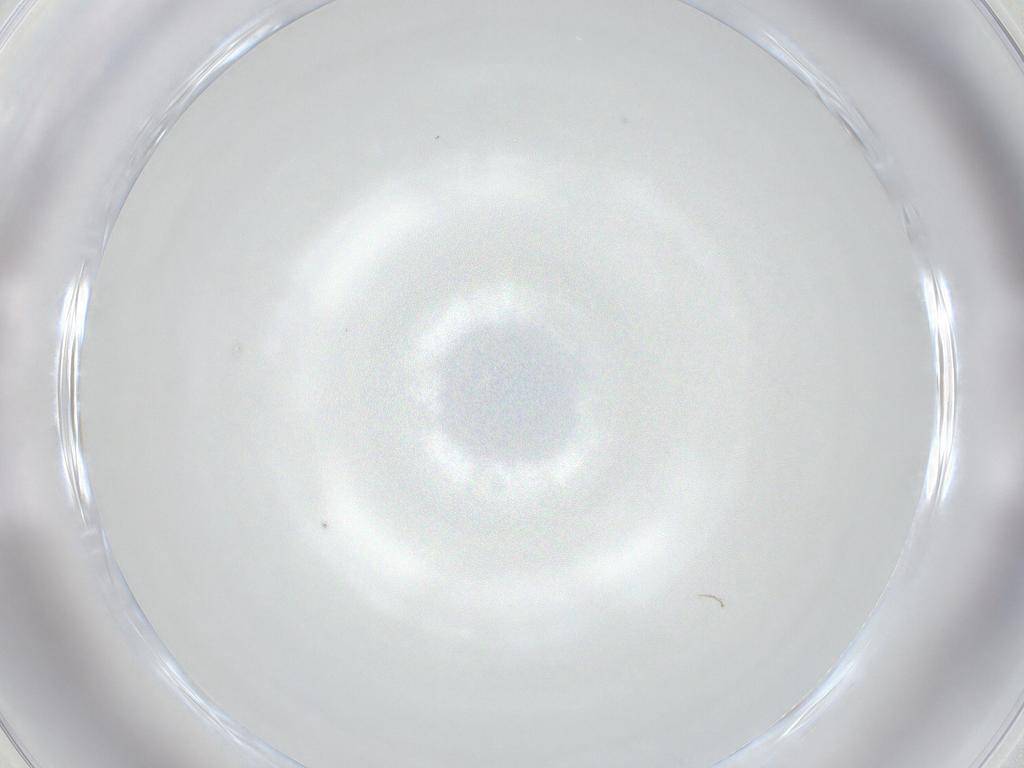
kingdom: Animalia
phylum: Arthropoda
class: Insecta
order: Diptera
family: Cecidomyiidae
